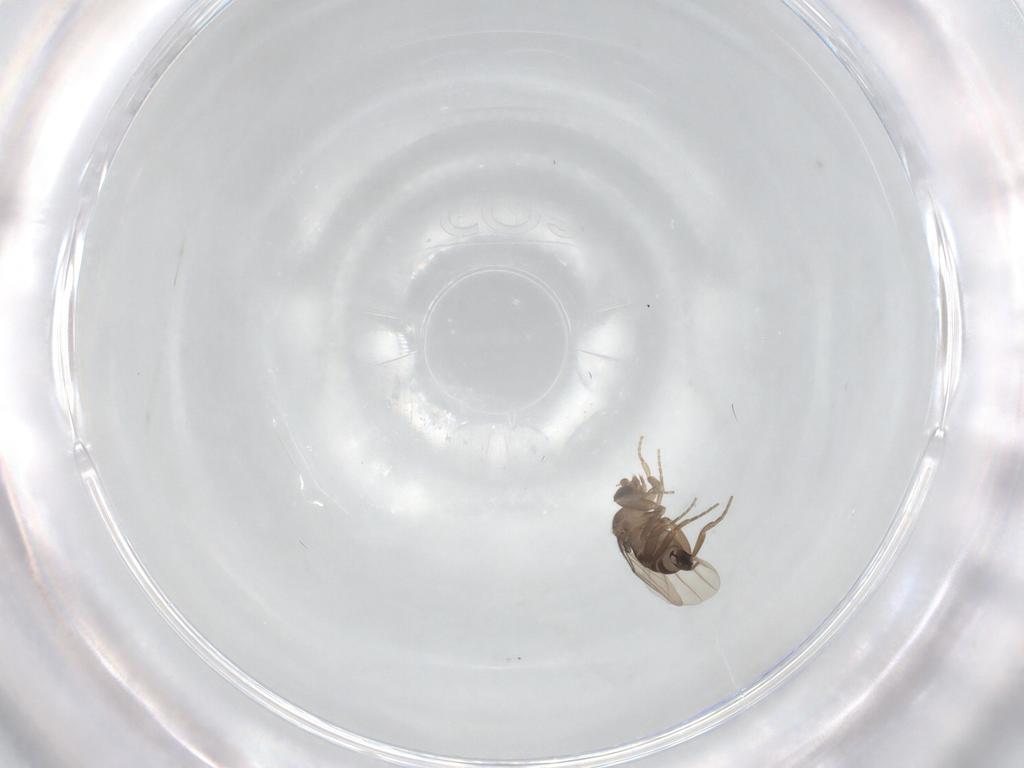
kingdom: Animalia
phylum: Arthropoda
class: Insecta
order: Diptera
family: Phoridae
